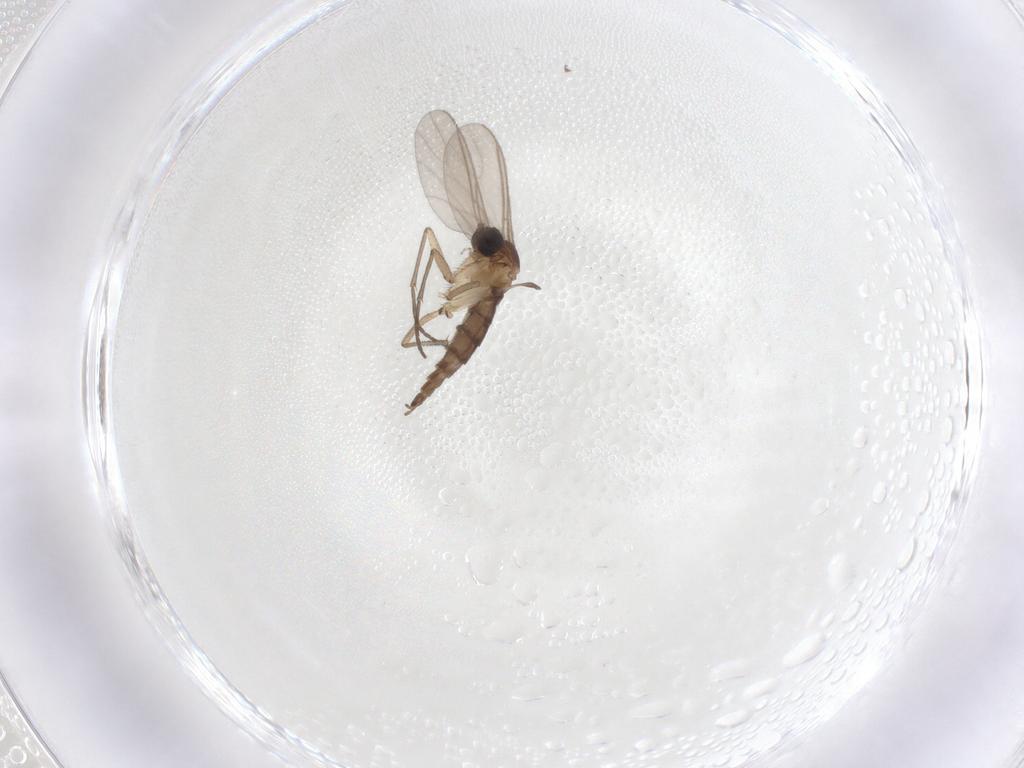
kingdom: Animalia
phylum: Arthropoda
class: Insecta
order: Diptera
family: Sciaridae
